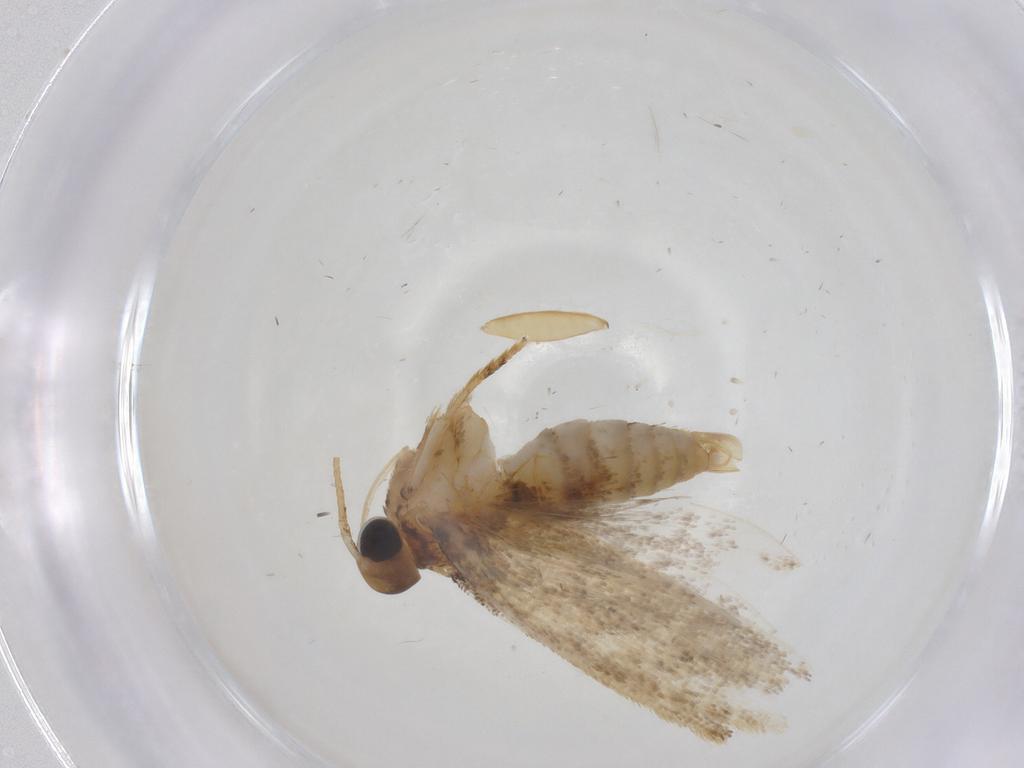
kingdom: Animalia
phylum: Arthropoda
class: Insecta
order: Lepidoptera
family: Oecophoridae
